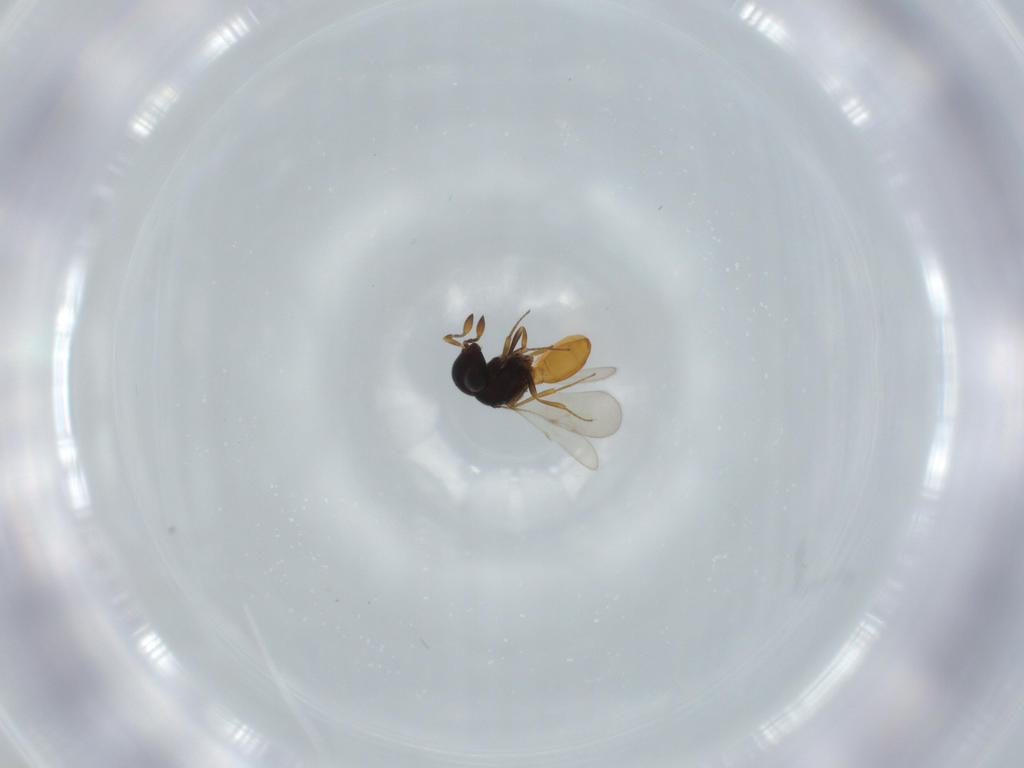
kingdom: Animalia
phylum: Arthropoda
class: Insecta
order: Hymenoptera
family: Scelionidae
